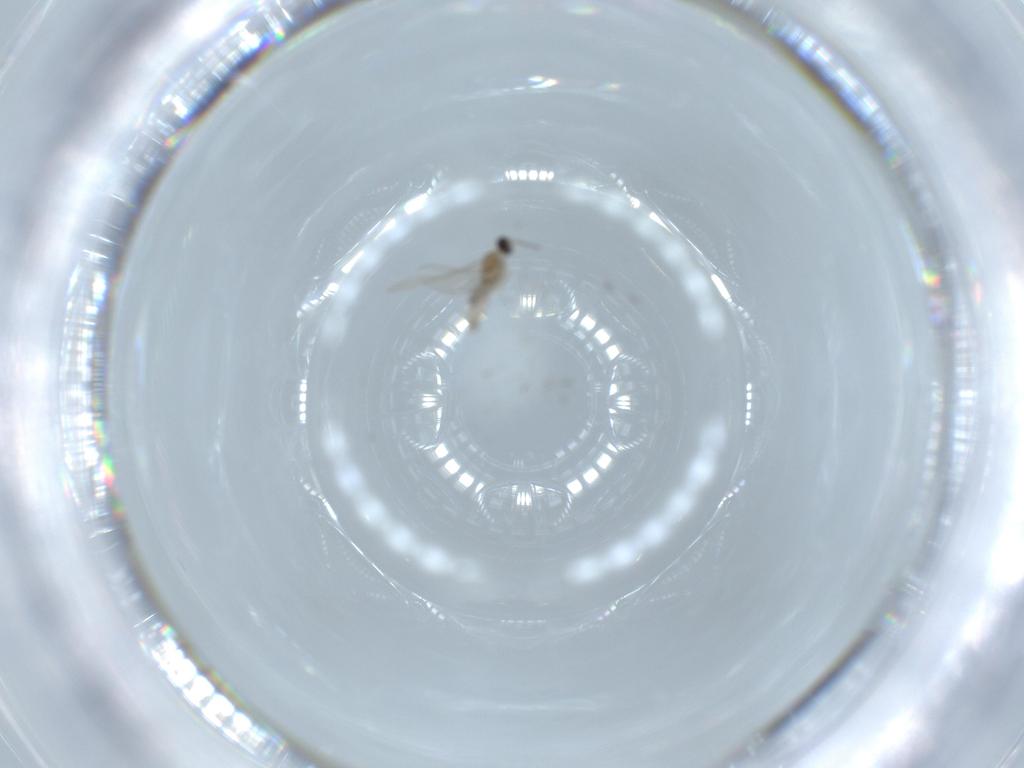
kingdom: Animalia
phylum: Arthropoda
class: Insecta
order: Diptera
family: Cecidomyiidae
